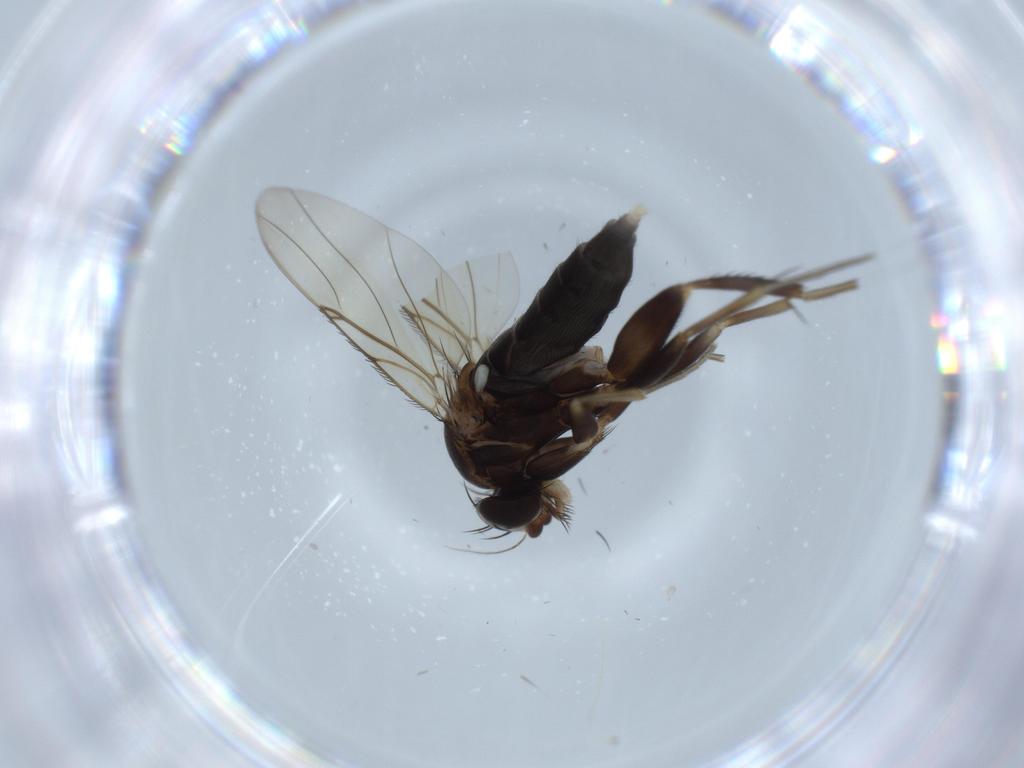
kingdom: Animalia
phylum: Arthropoda
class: Insecta
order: Diptera
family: Phoridae
